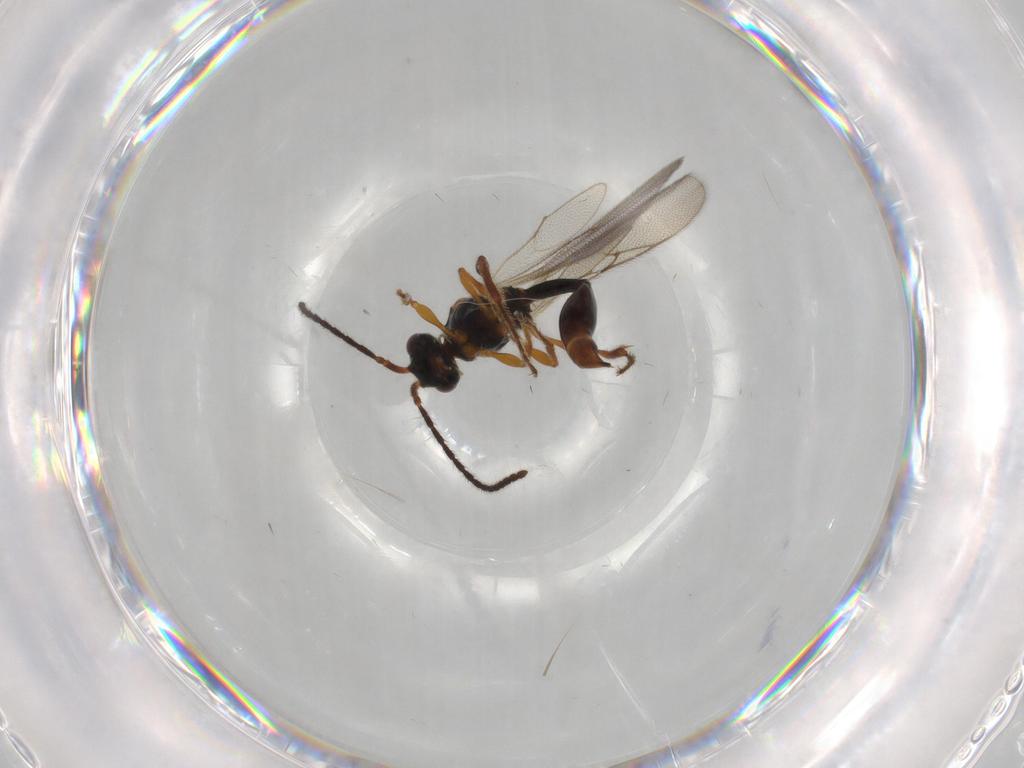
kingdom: Animalia
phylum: Arthropoda
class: Insecta
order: Hymenoptera
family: Diapriidae
